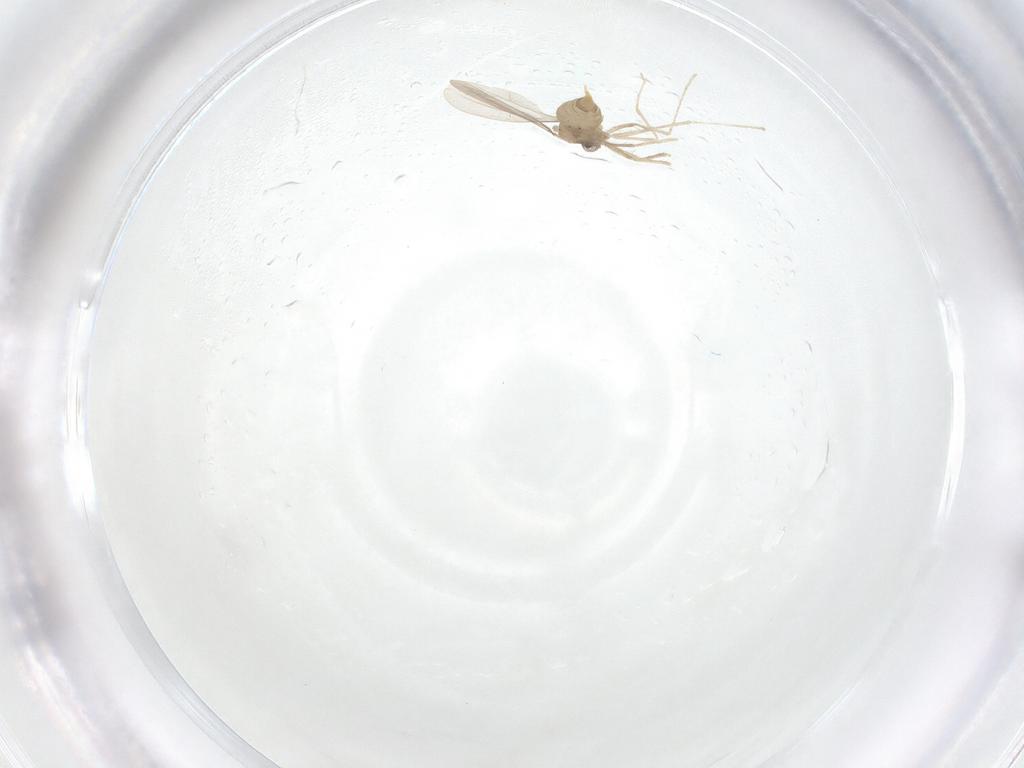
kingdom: Animalia
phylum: Arthropoda
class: Insecta
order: Diptera
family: Cecidomyiidae
